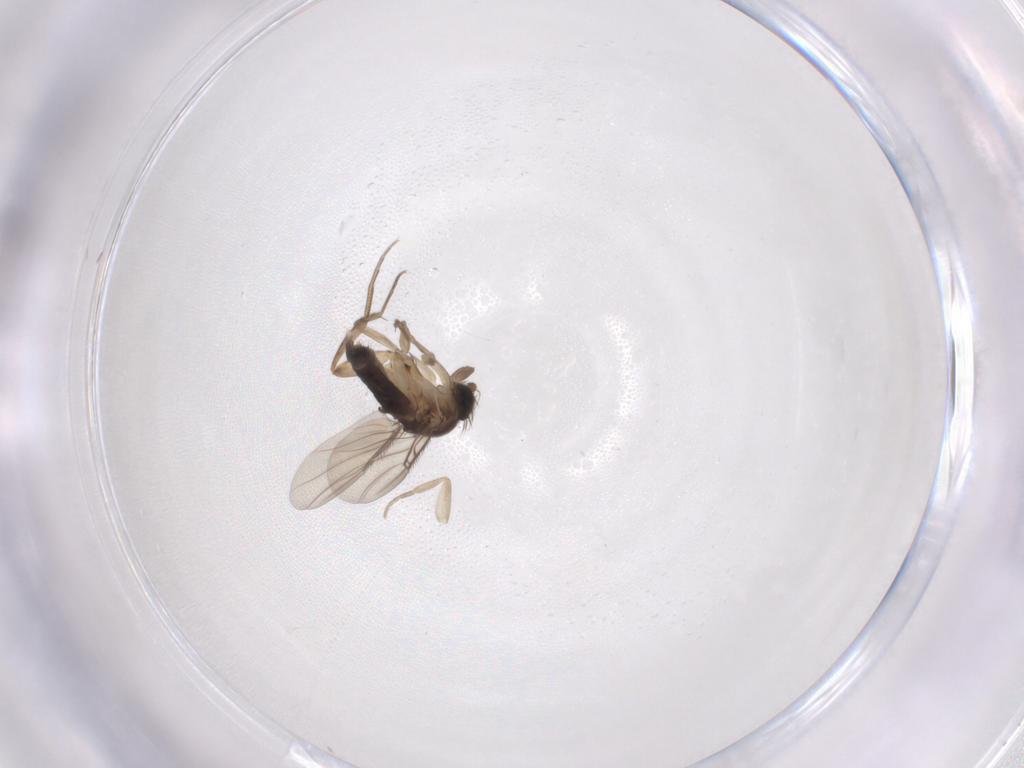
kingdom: Animalia
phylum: Arthropoda
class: Insecta
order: Diptera
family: Phoridae
